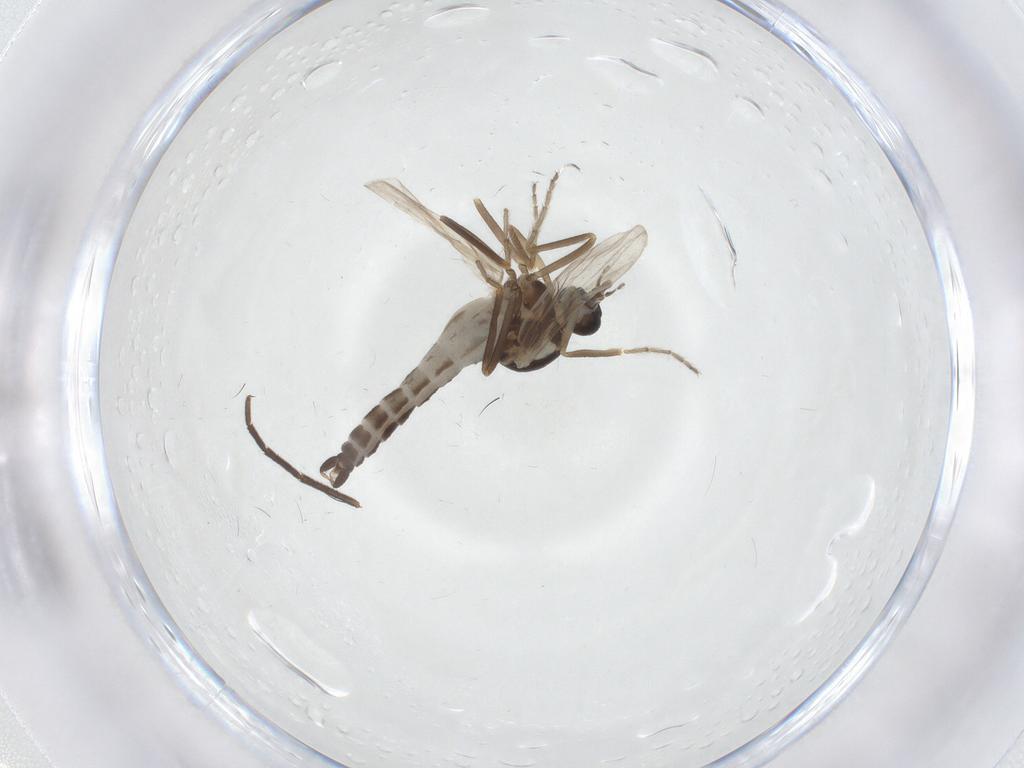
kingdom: Animalia
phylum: Arthropoda
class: Insecta
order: Diptera
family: Ceratopogonidae
